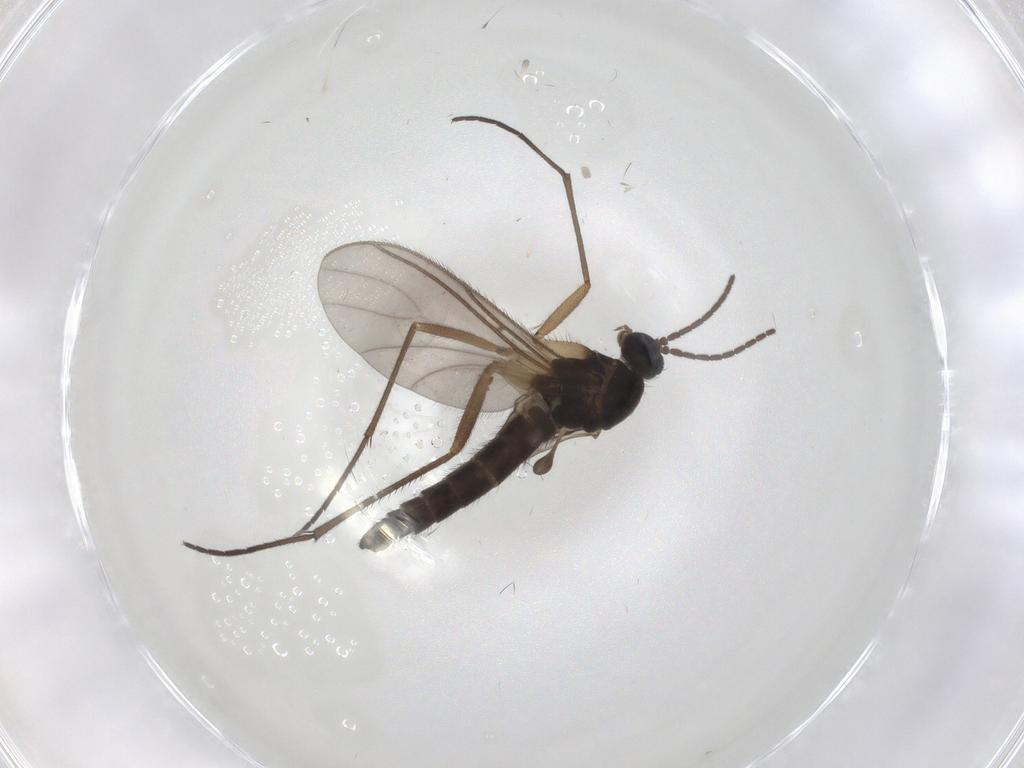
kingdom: Animalia
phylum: Arthropoda
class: Insecta
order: Diptera
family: Sciaridae
